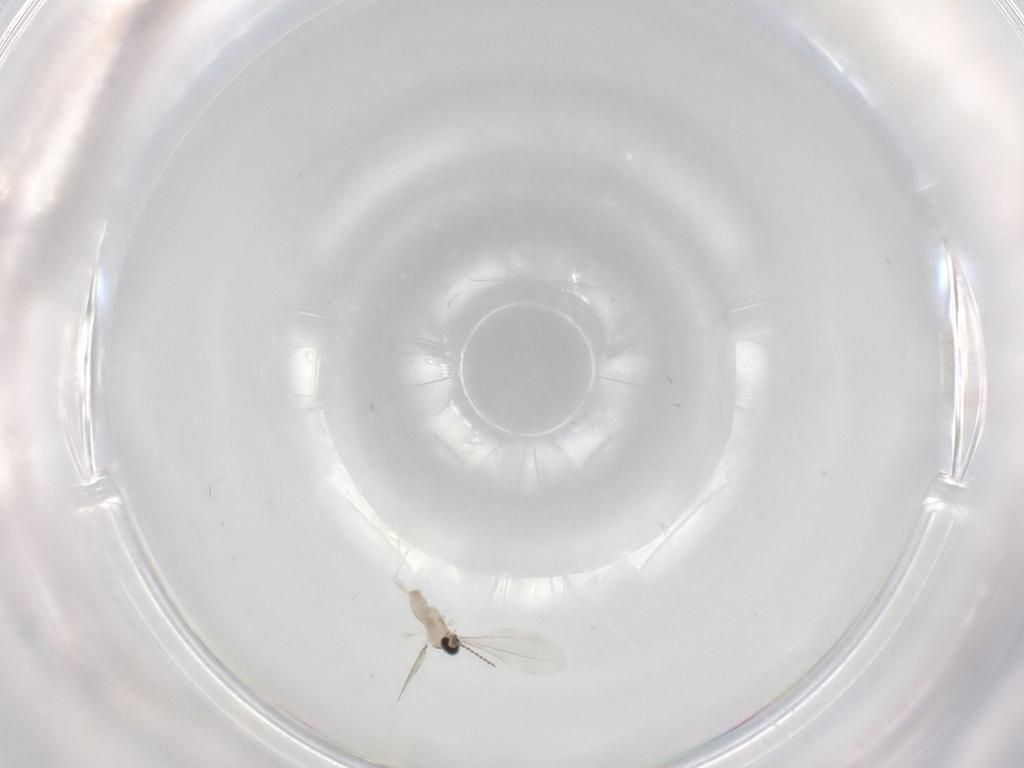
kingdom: Animalia
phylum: Arthropoda
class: Insecta
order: Diptera
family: Cecidomyiidae
